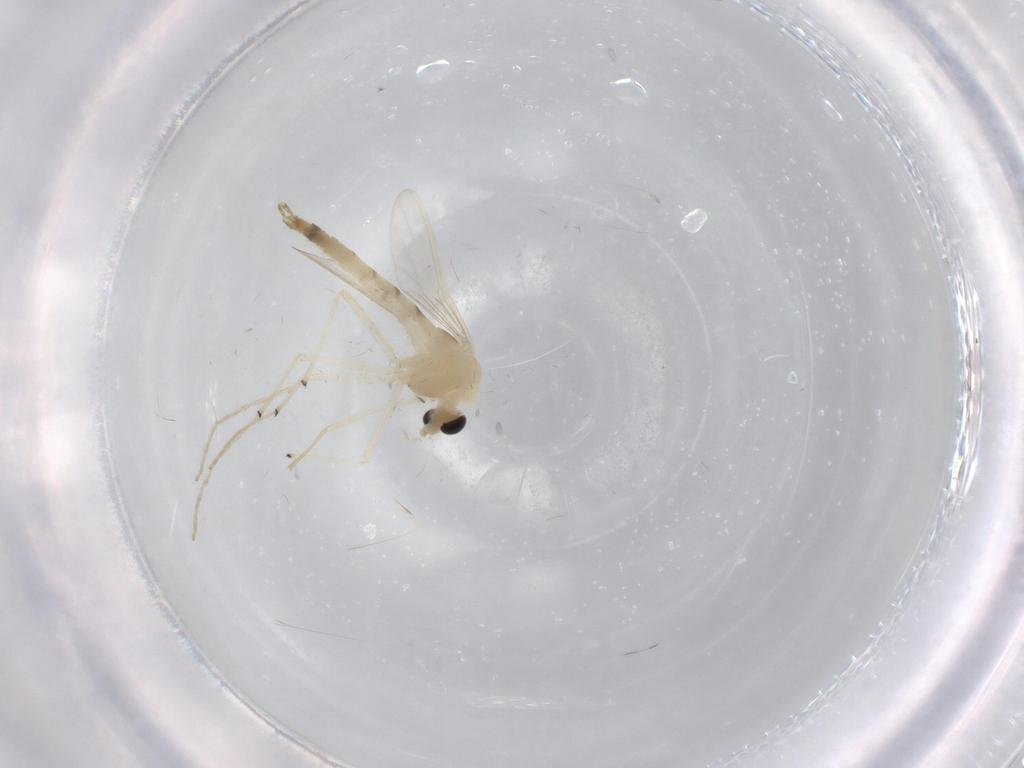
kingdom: Animalia
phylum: Arthropoda
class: Insecta
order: Diptera
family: Chironomidae
